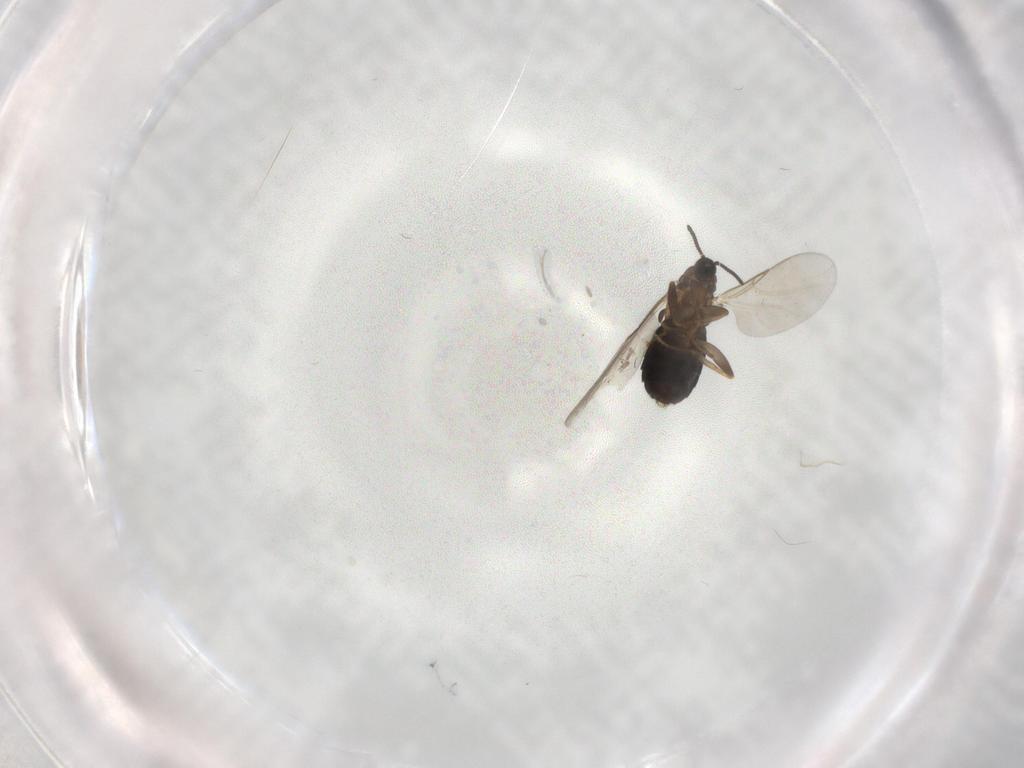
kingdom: Animalia
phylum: Arthropoda
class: Insecta
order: Diptera
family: Scatopsidae
